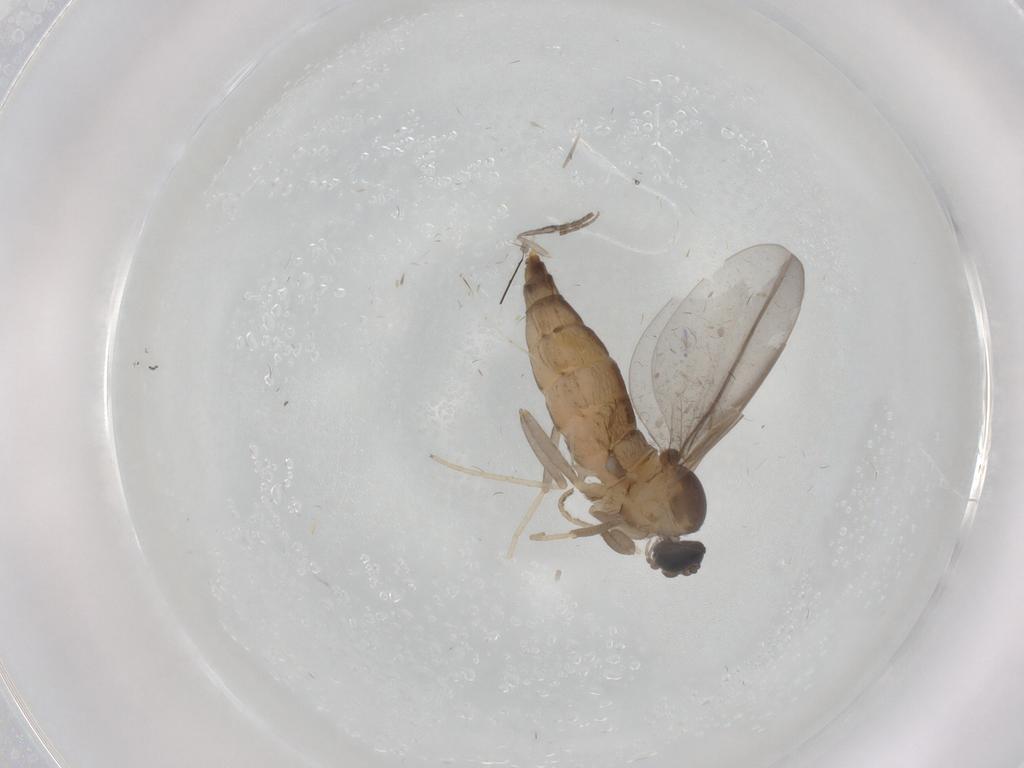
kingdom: Animalia
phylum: Arthropoda
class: Insecta
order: Diptera
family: Cecidomyiidae
